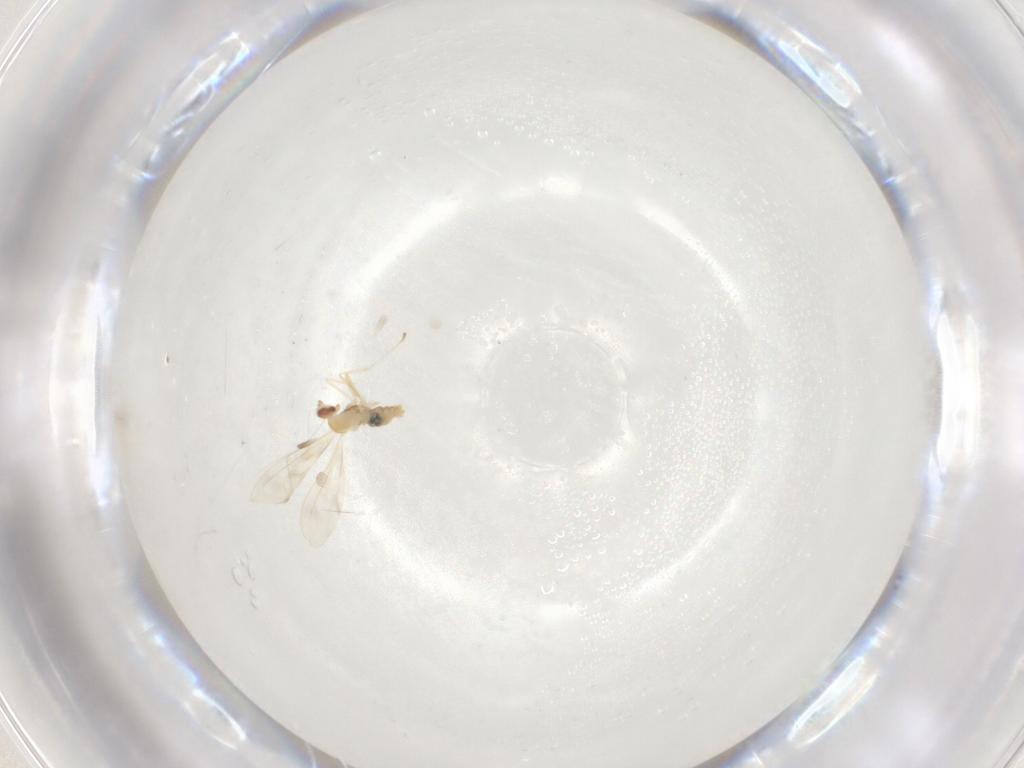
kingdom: Animalia
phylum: Arthropoda
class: Insecta
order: Diptera
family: Cecidomyiidae
